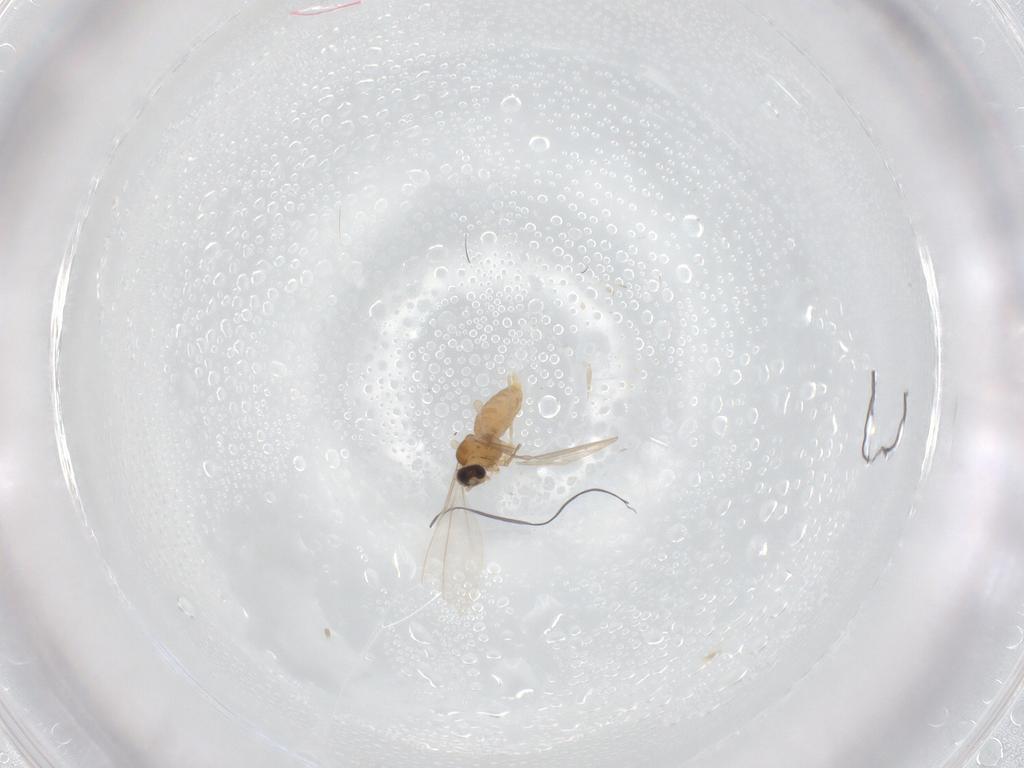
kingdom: Animalia
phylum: Arthropoda
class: Insecta
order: Diptera
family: Cecidomyiidae
